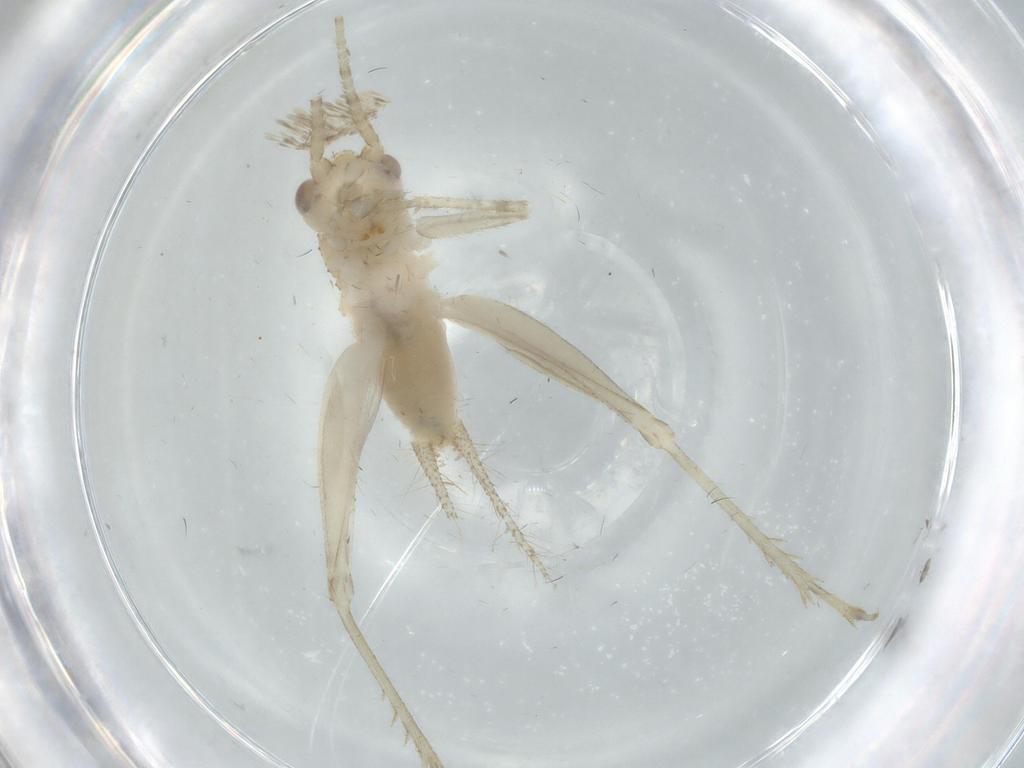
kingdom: Animalia
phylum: Arthropoda
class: Insecta
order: Orthoptera
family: Trigonidiidae
